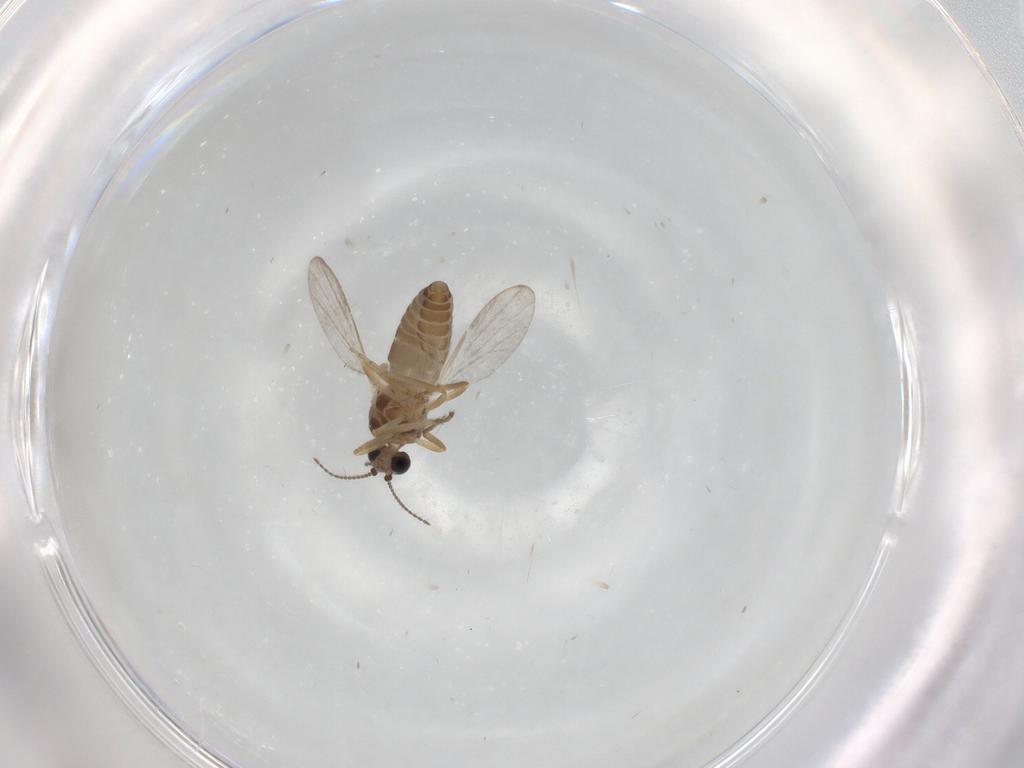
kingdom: Animalia
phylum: Arthropoda
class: Insecta
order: Diptera
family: Ceratopogonidae
